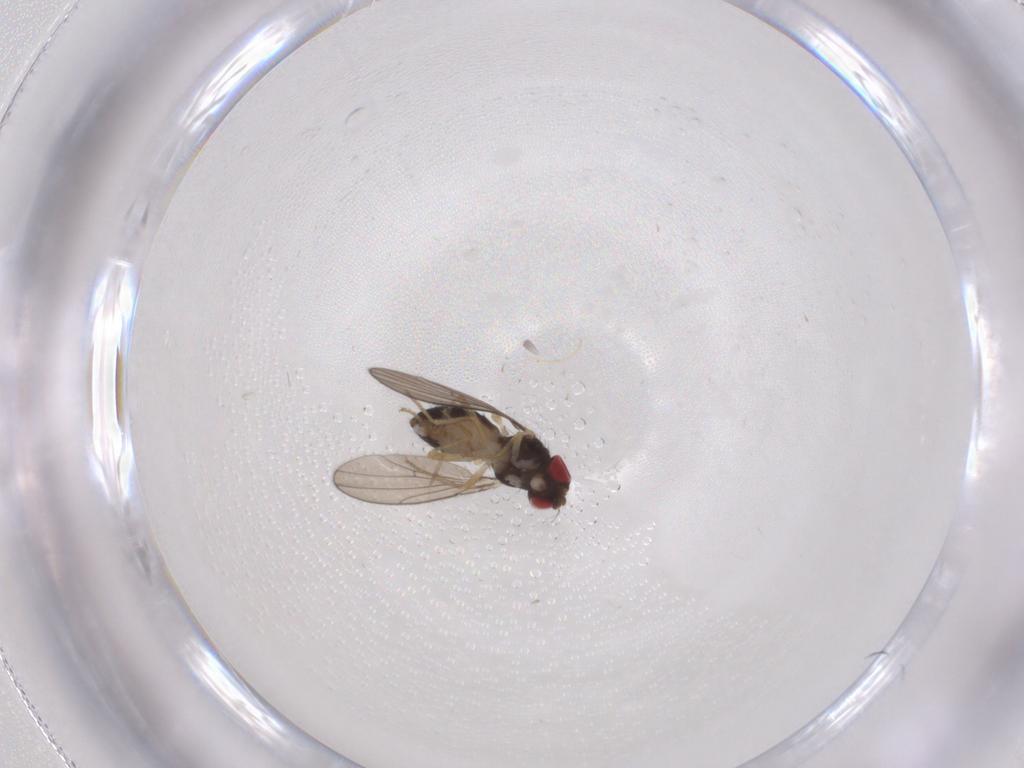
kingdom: Animalia
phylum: Arthropoda
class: Insecta
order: Diptera
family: Drosophilidae
